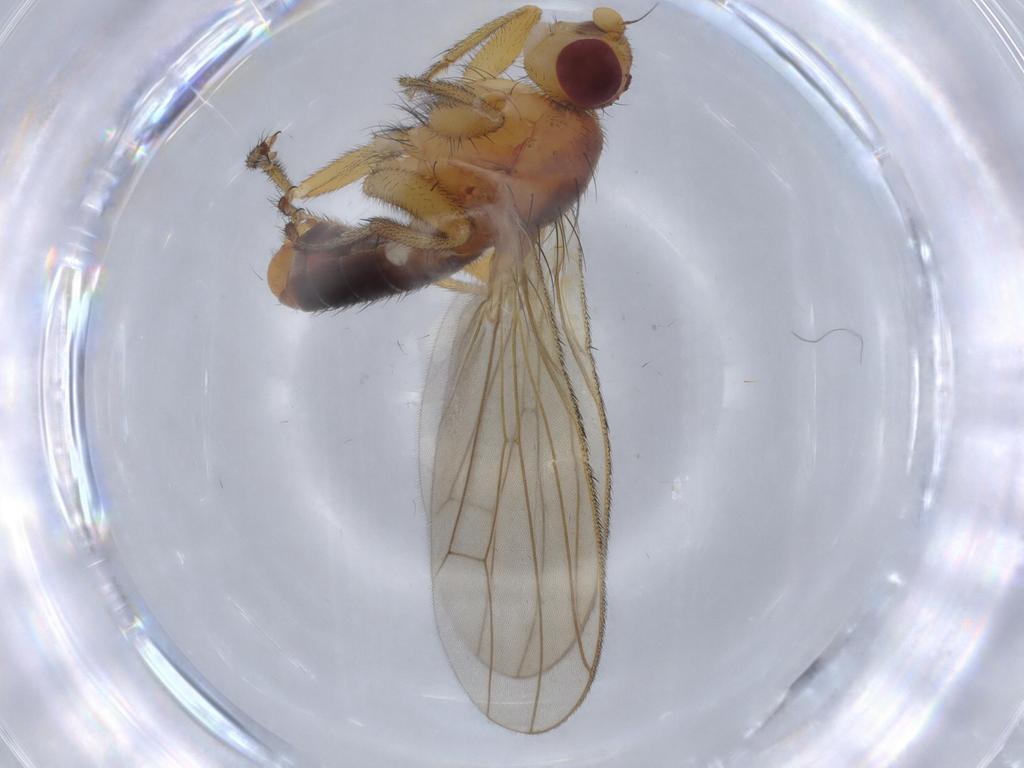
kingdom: Animalia
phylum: Arthropoda
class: Insecta
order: Diptera
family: Heleomyzidae
